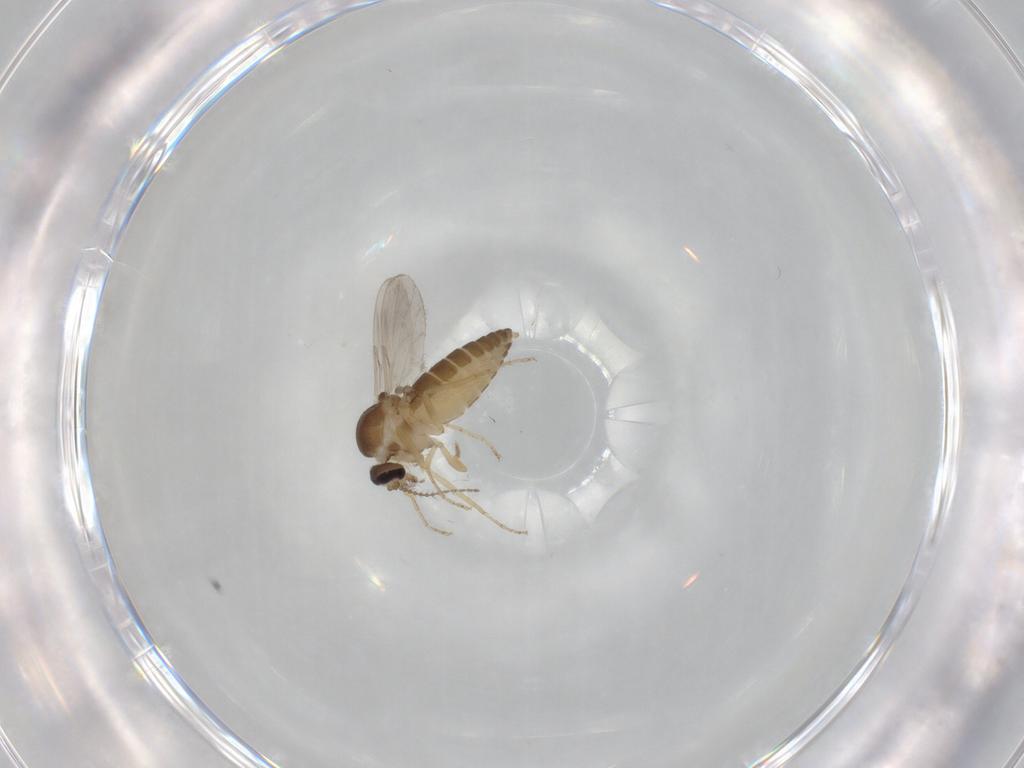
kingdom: Animalia
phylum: Arthropoda
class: Insecta
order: Diptera
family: Ceratopogonidae
